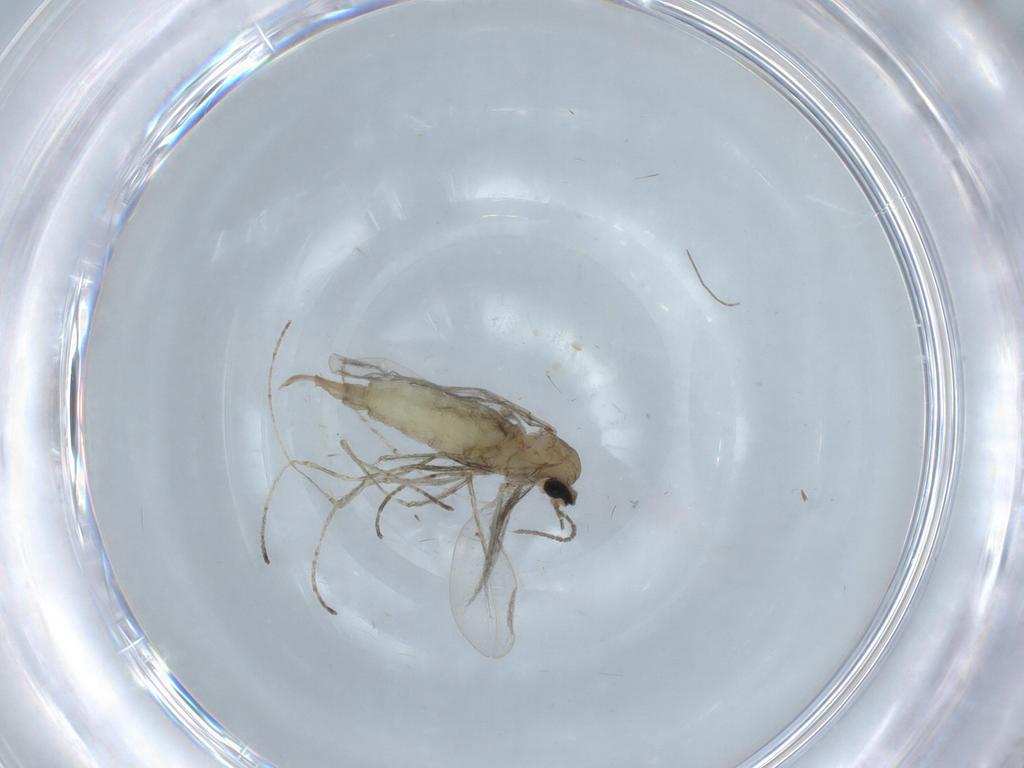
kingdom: Animalia
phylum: Arthropoda
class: Insecta
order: Diptera
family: Cecidomyiidae
